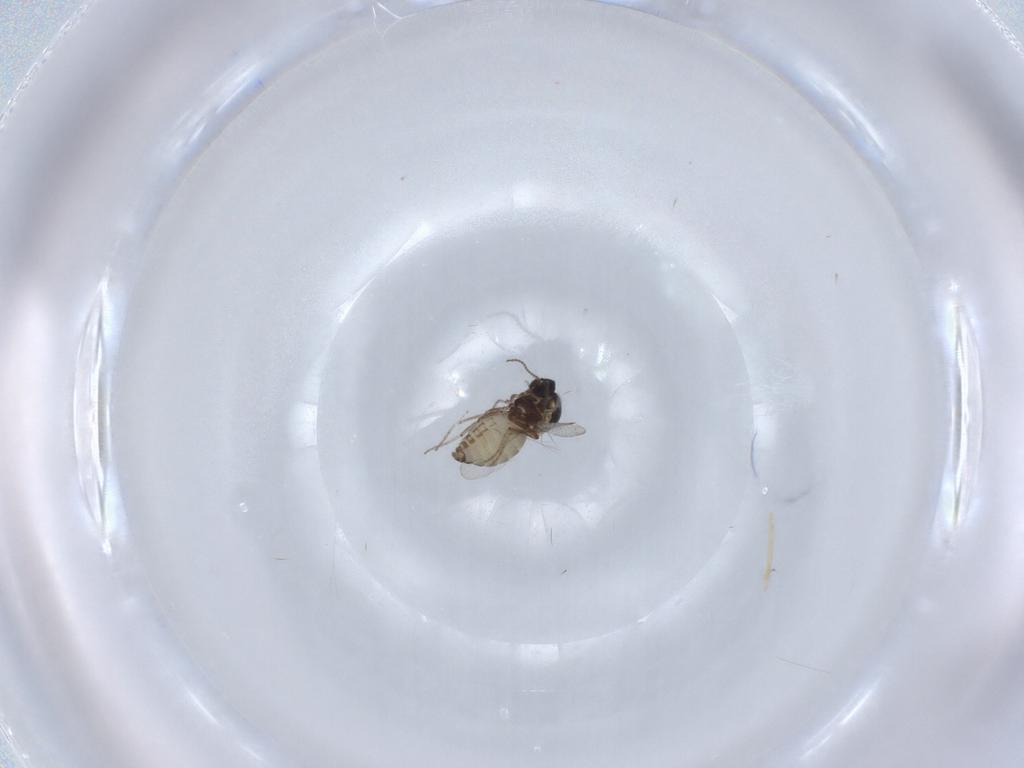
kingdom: Animalia
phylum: Arthropoda
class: Insecta
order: Diptera
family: Ceratopogonidae
